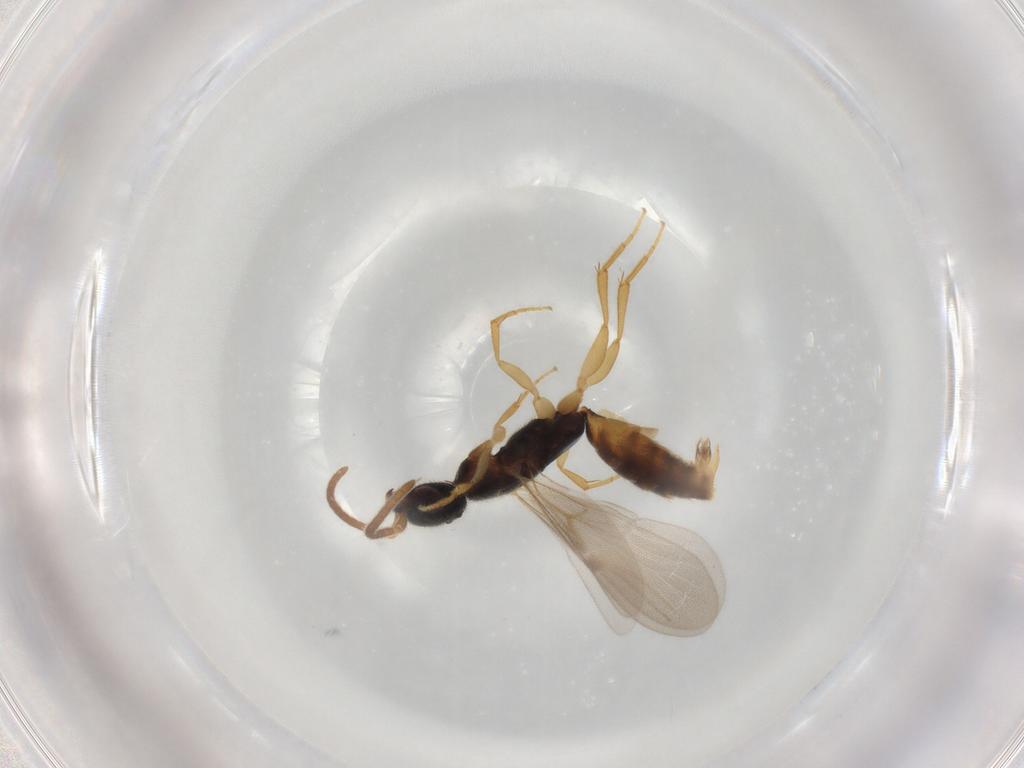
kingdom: Animalia
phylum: Arthropoda
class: Insecta
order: Hymenoptera
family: Bethylidae
